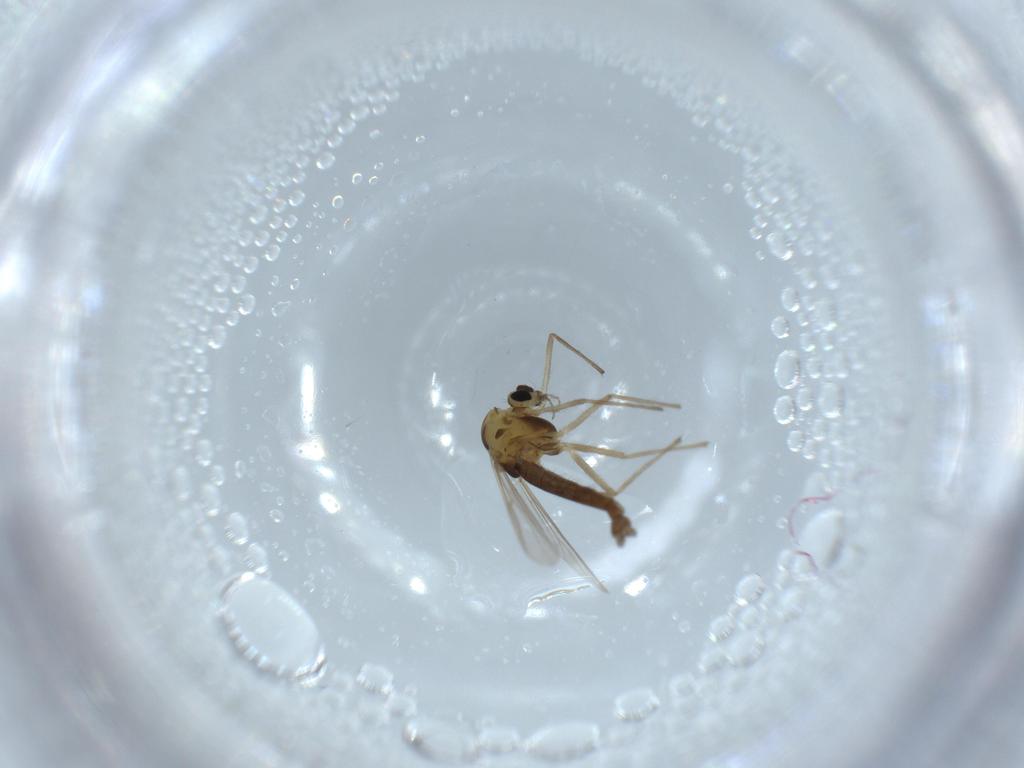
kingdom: Animalia
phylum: Arthropoda
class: Insecta
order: Diptera
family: Chironomidae
